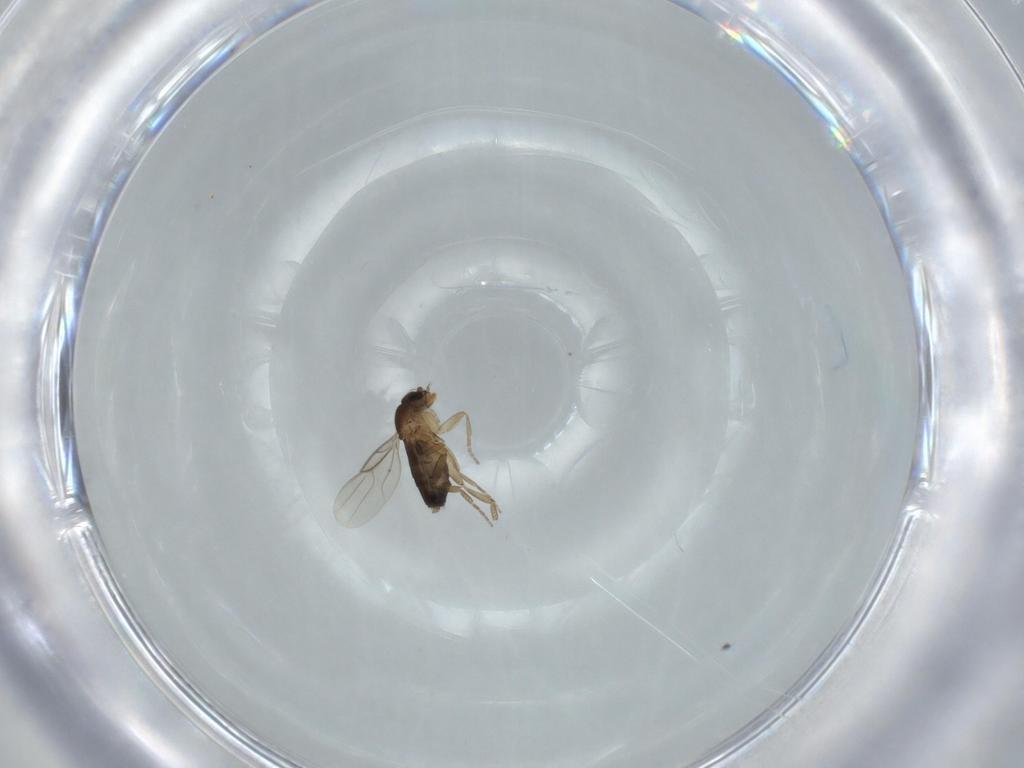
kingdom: Animalia
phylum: Arthropoda
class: Insecta
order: Diptera
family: Phoridae
